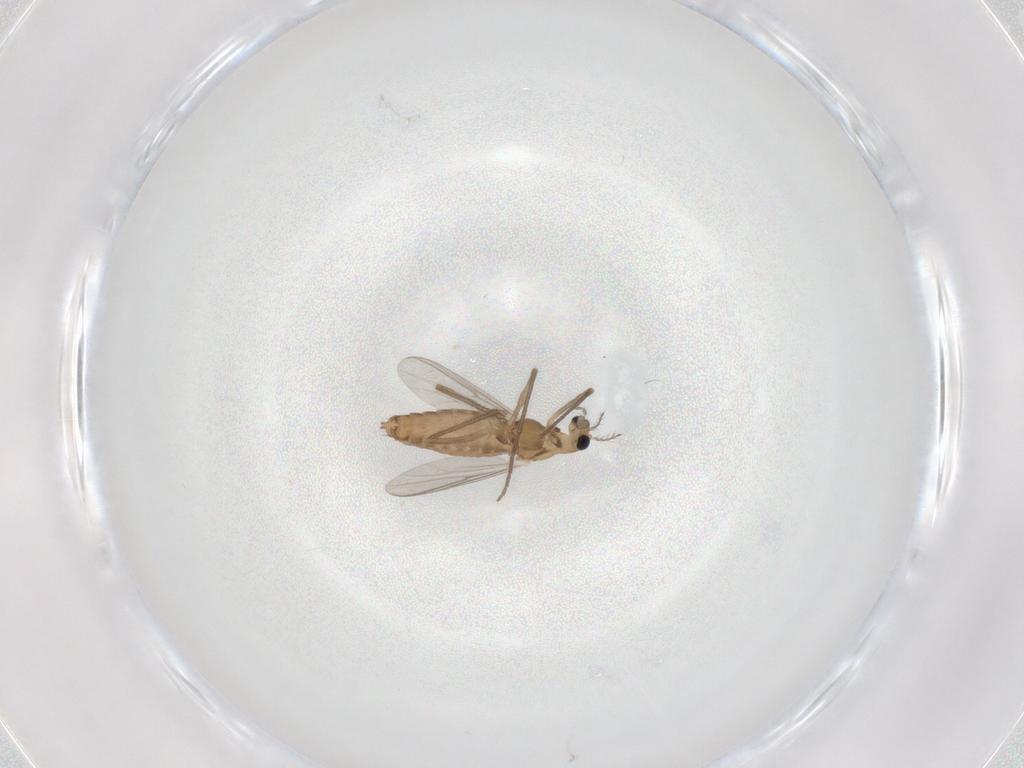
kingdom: Animalia
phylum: Arthropoda
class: Insecta
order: Diptera
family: Chironomidae
